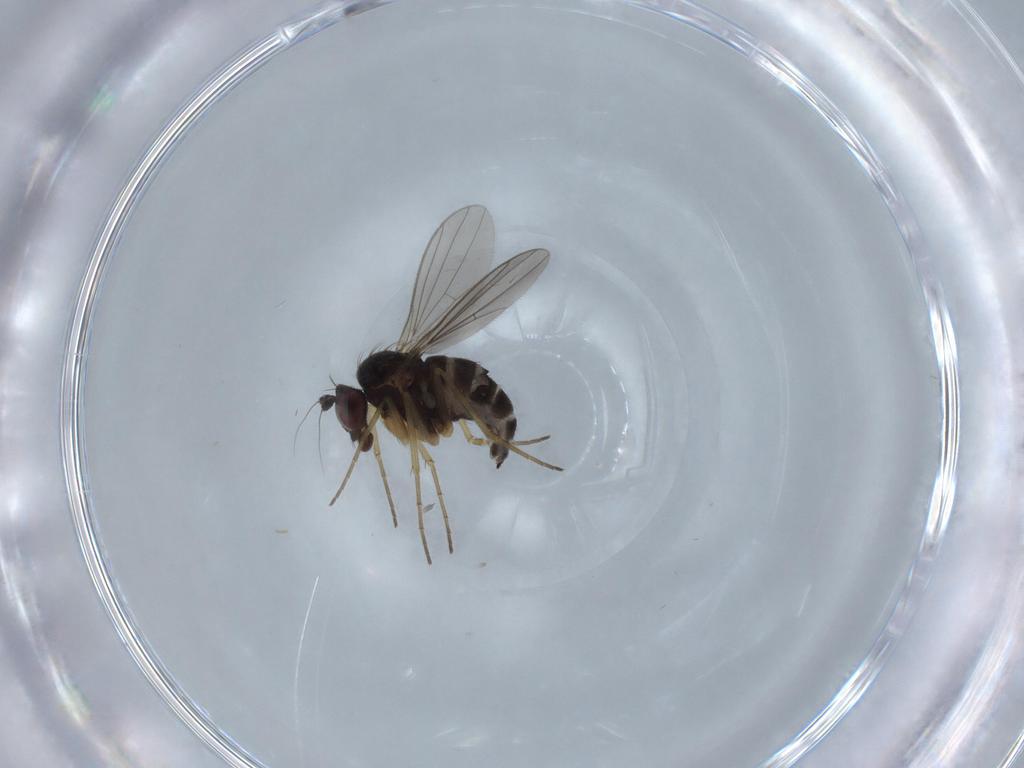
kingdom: Animalia
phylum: Arthropoda
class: Insecta
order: Diptera
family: Dolichopodidae
